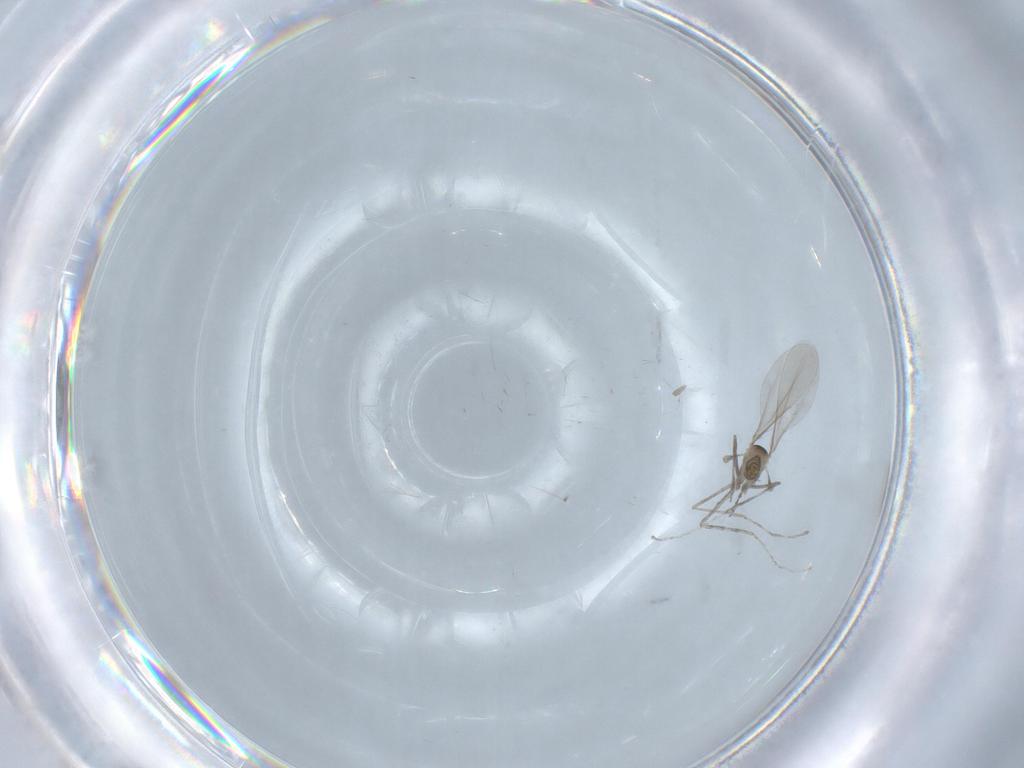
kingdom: Animalia
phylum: Arthropoda
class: Insecta
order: Diptera
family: Cecidomyiidae
